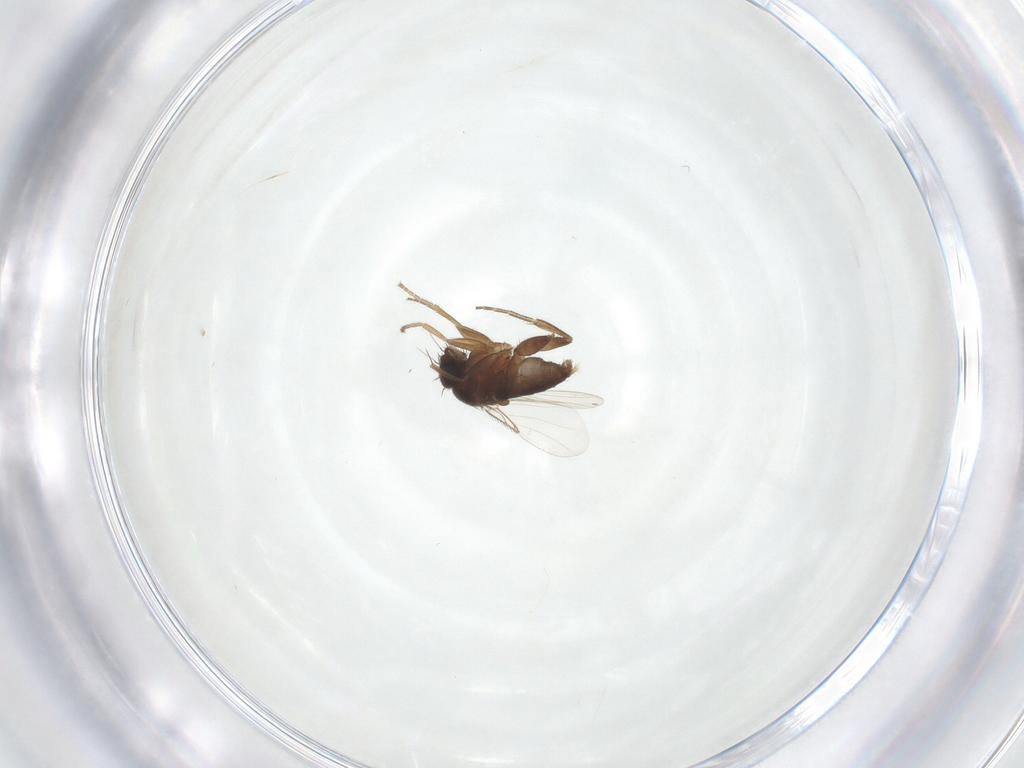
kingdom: Animalia
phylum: Arthropoda
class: Insecta
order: Diptera
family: Phoridae
